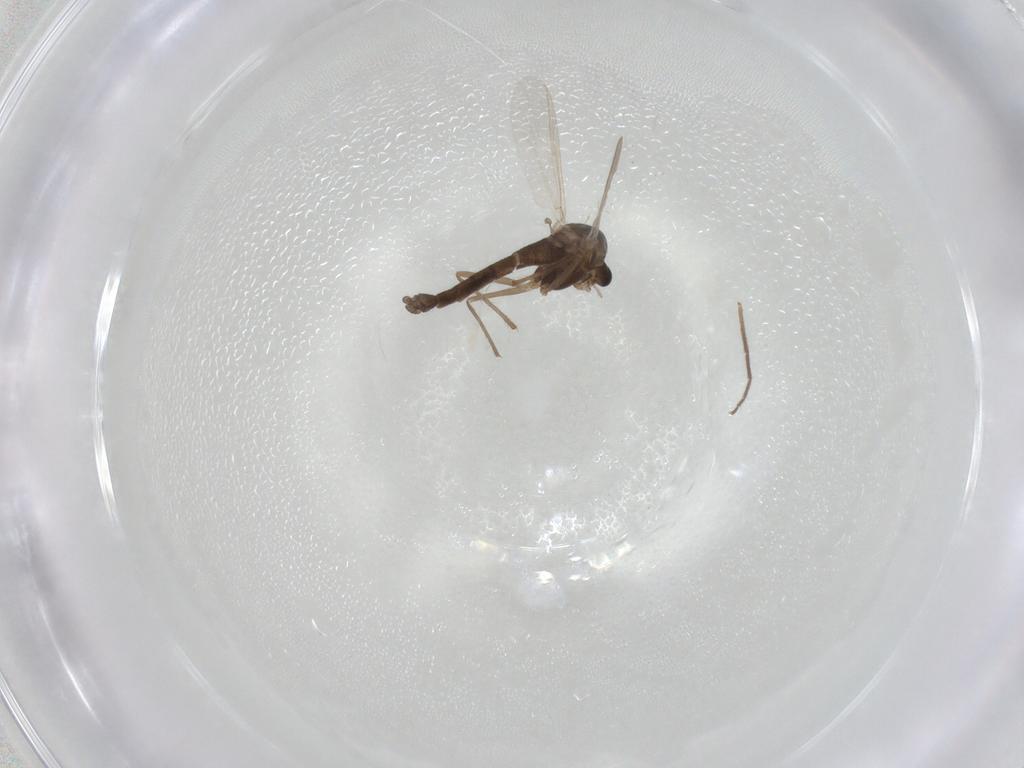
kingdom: Animalia
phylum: Arthropoda
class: Insecta
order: Diptera
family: Chironomidae
